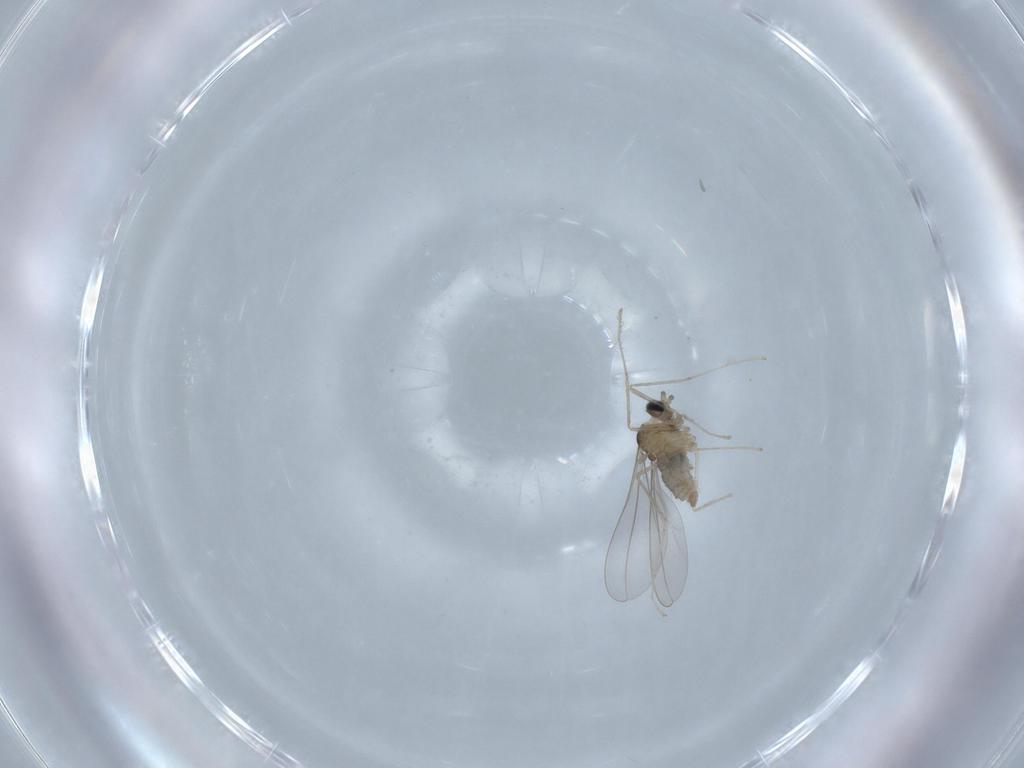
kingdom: Animalia
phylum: Arthropoda
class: Insecta
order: Diptera
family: Cecidomyiidae
